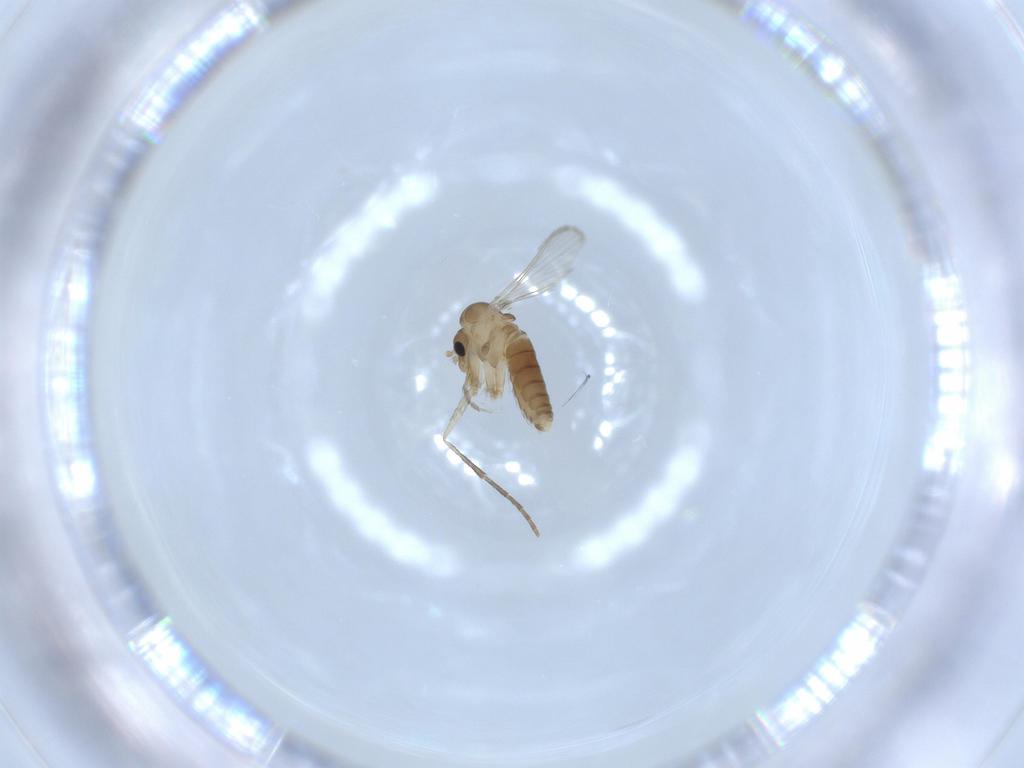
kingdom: Animalia
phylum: Arthropoda
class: Insecta
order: Diptera
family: Psychodidae
